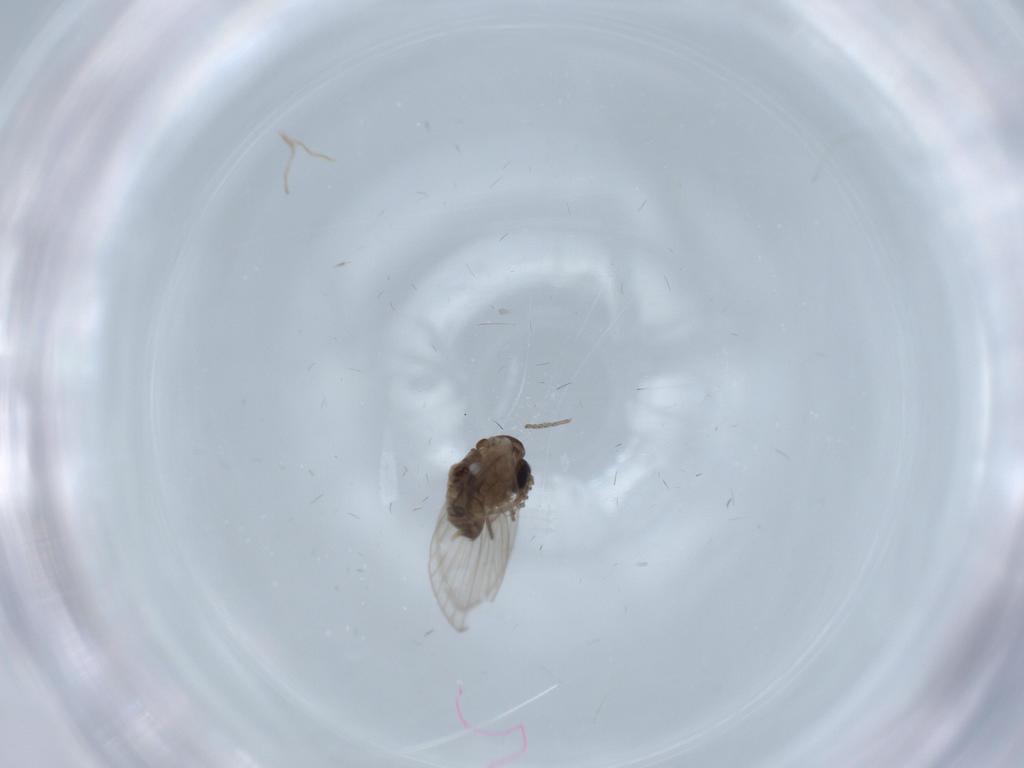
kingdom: Animalia
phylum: Arthropoda
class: Insecta
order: Diptera
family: Psychodidae
